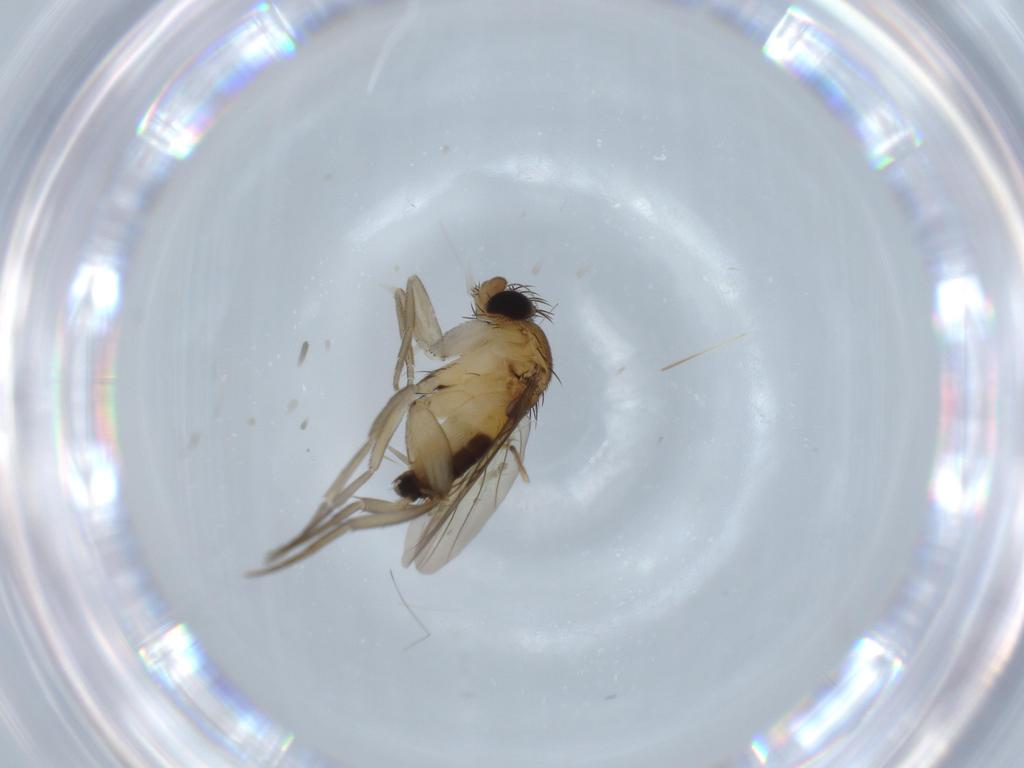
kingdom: Animalia
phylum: Arthropoda
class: Insecta
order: Diptera
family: Phoridae
